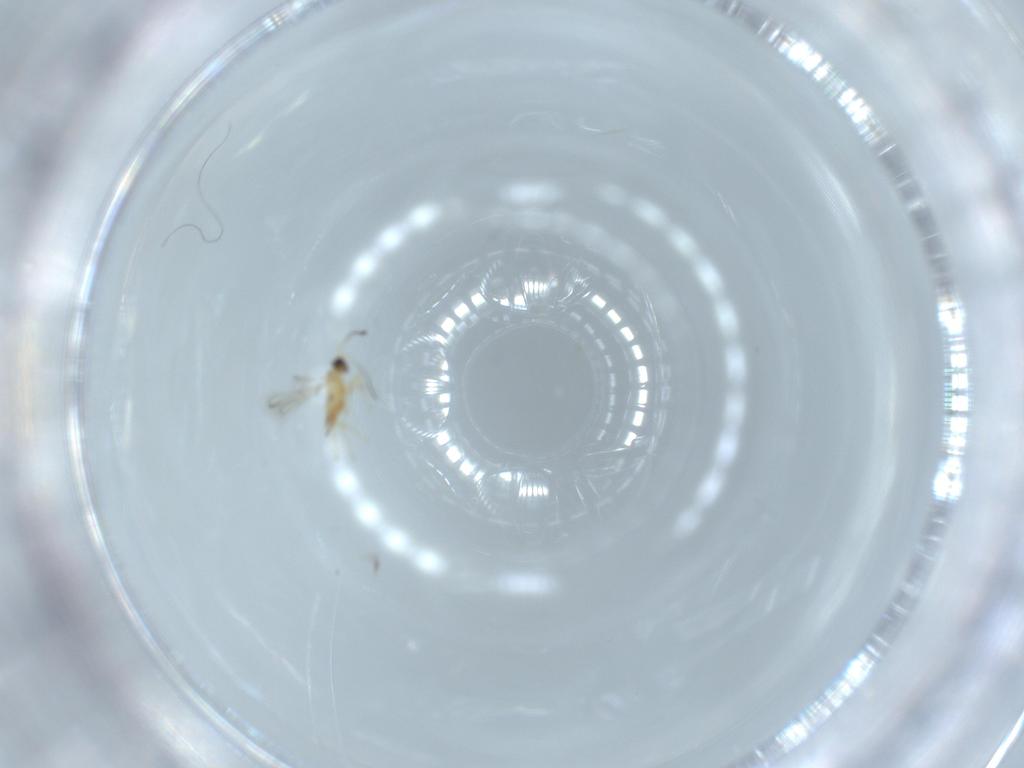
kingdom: Animalia
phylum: Arthropoda
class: Insecta
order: Hymenoptera
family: Mymaridae
